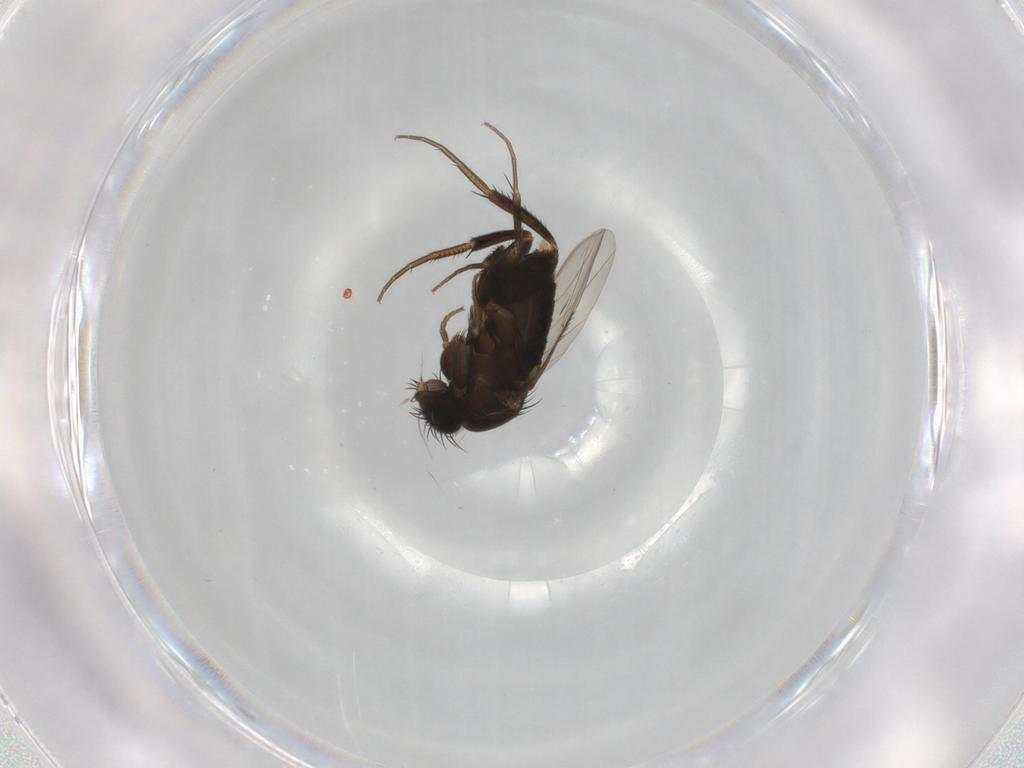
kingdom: Animalia
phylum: Arthropoda
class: Insecta
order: Diptera
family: Phoridae
